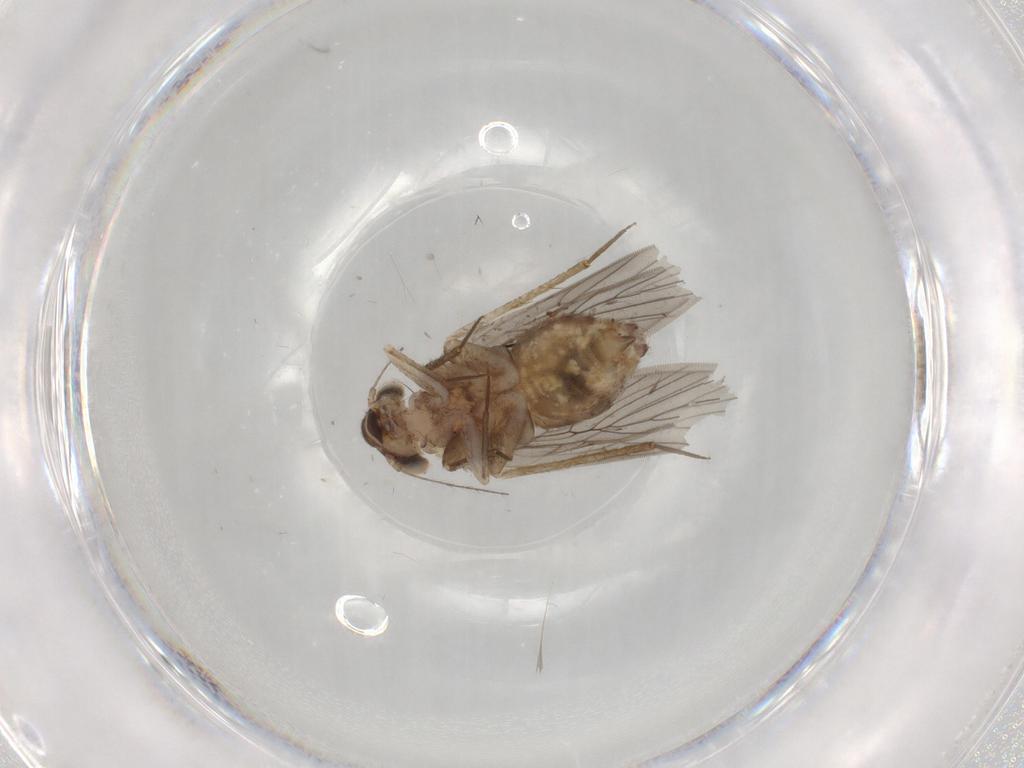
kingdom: Animalia
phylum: Arthropoda
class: Insecta
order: Psocodea
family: Lepidopsocidae
